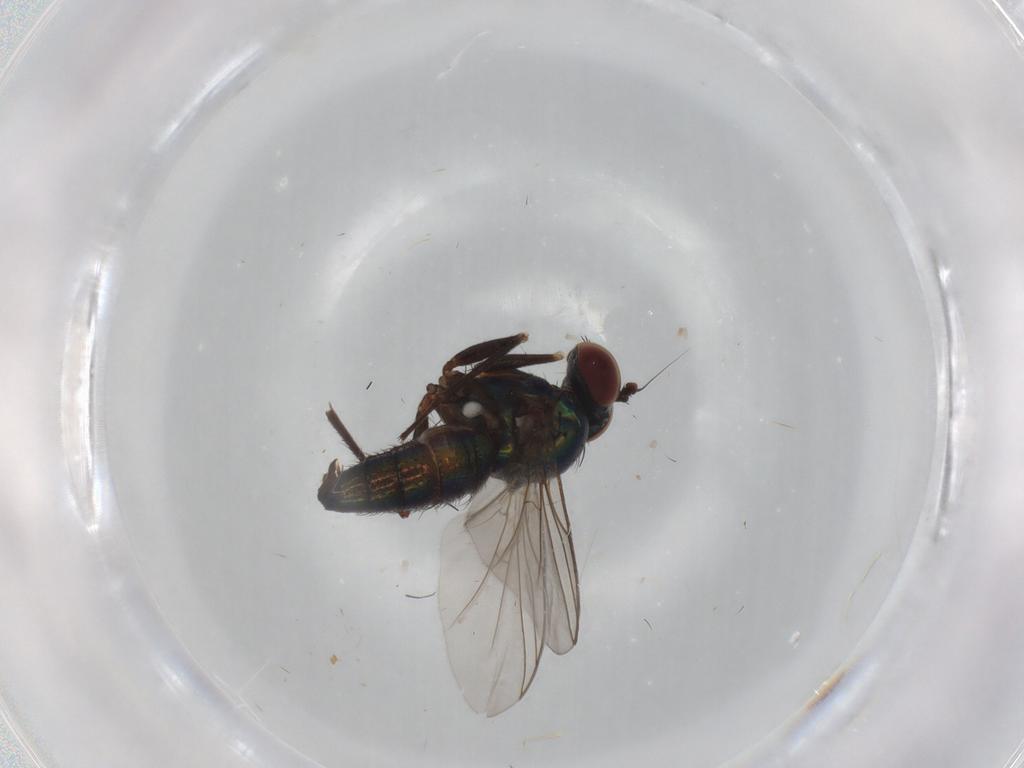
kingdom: Animalia
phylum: Arthropoda
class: Insecta
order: Diptera
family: Dolichopodidae
